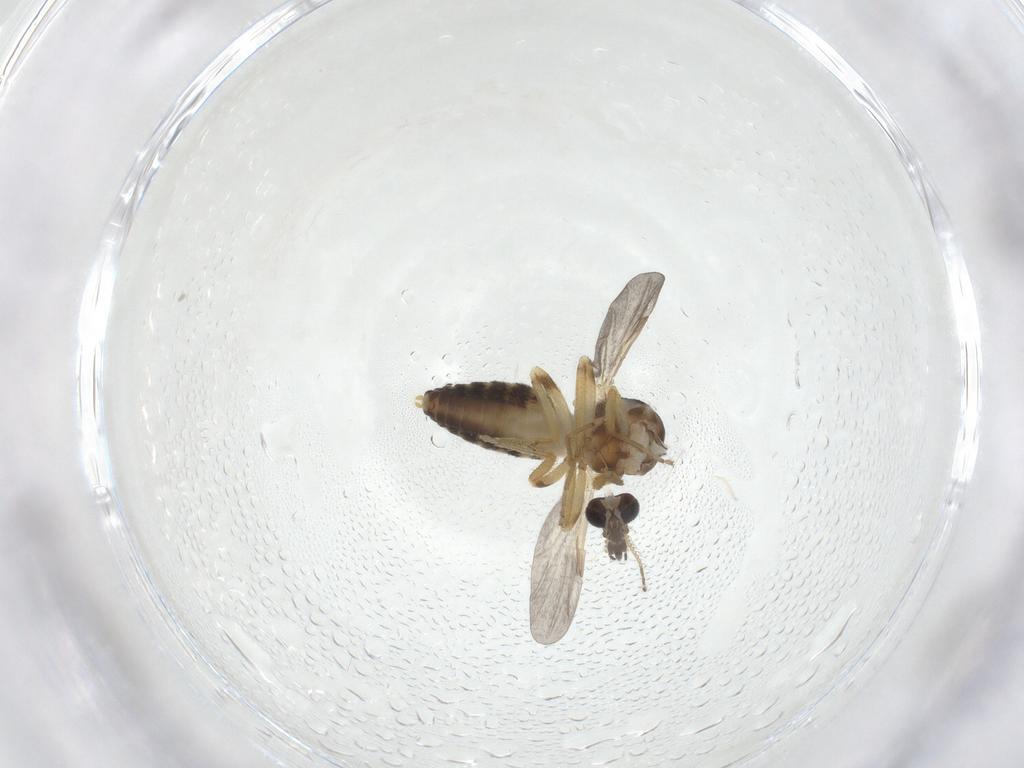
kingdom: Animalia
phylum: Arthropoda
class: Insecta
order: Diptera
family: Ceratopogonidae
